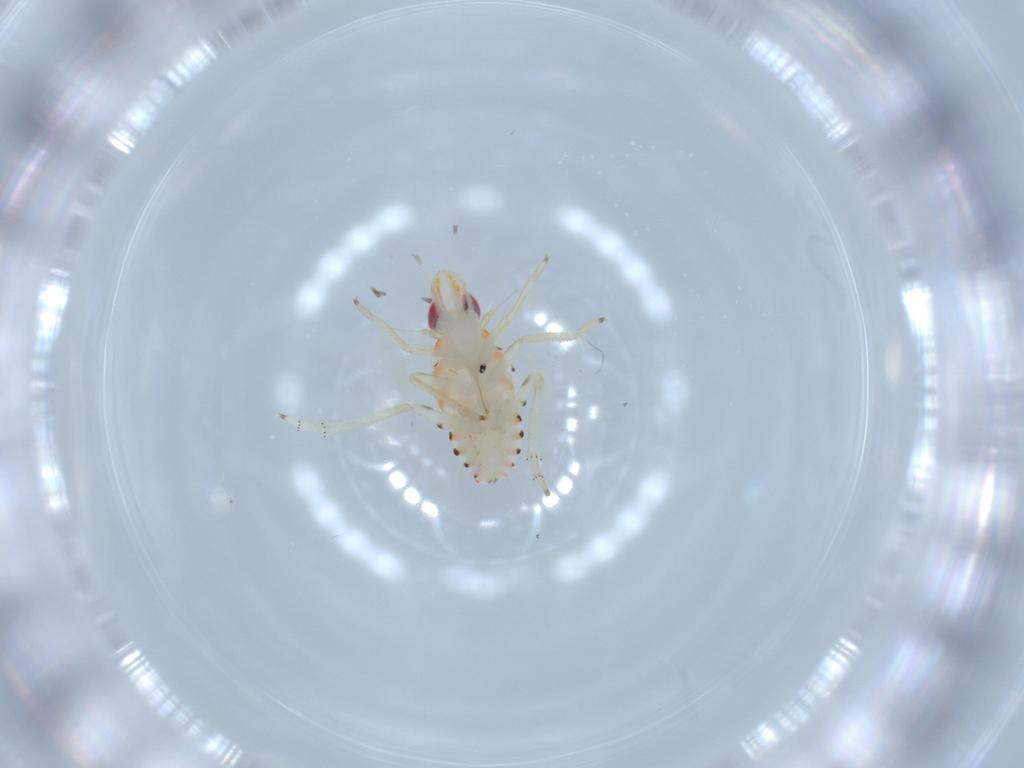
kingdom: Animalia
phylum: Arthropoda
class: Insecta
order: Hemiptera
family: Tropiduchidae
